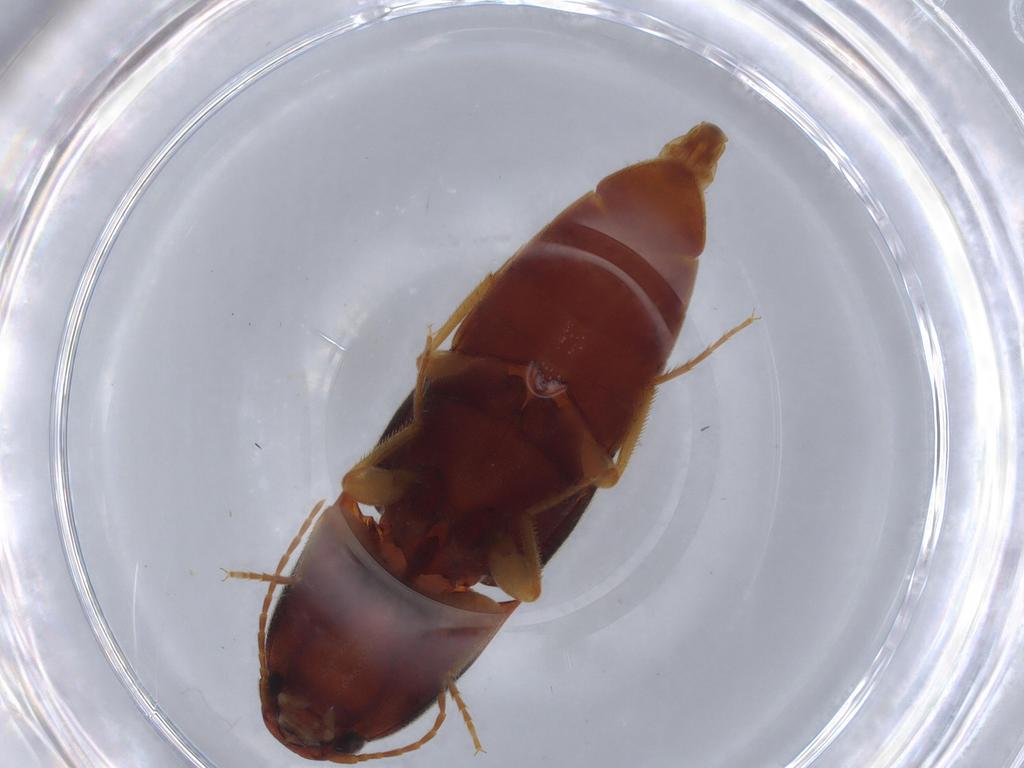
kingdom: Animalia
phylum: Arthropoda
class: Insecta
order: Coleoptera
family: Elateridae
